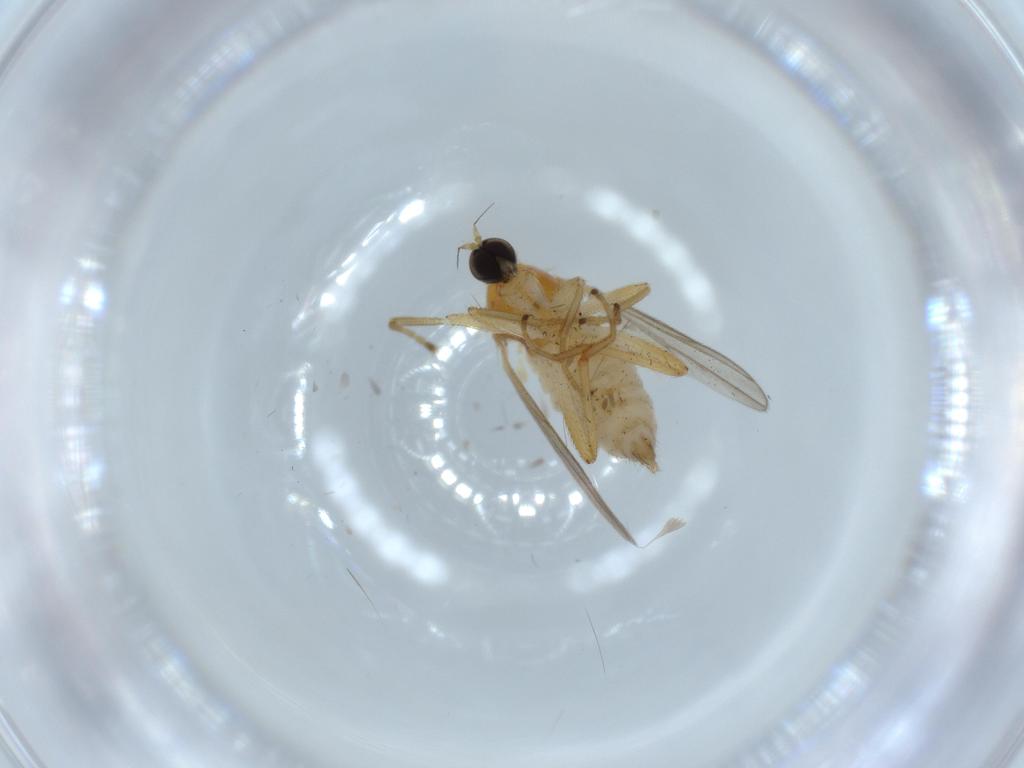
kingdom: Animalia
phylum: Arthropoda
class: Insecta
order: Diptera
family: Hybotidae
